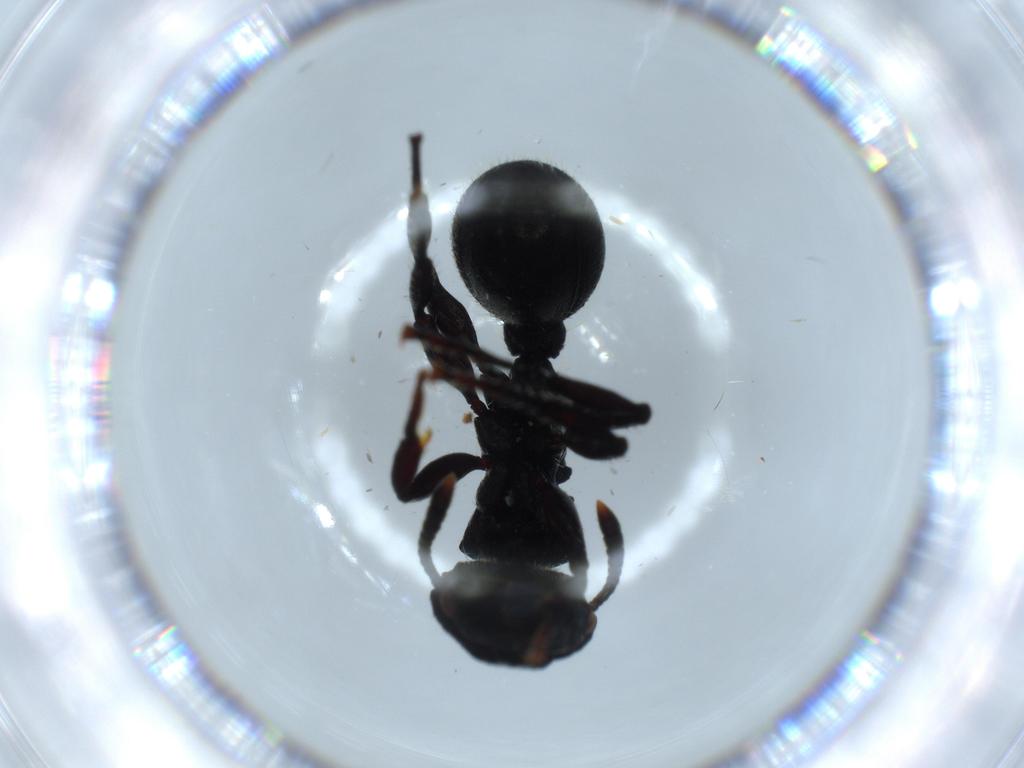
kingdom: Animalia
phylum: Arthropoda
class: Insecta
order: Hymenoptera
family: Formicidae
